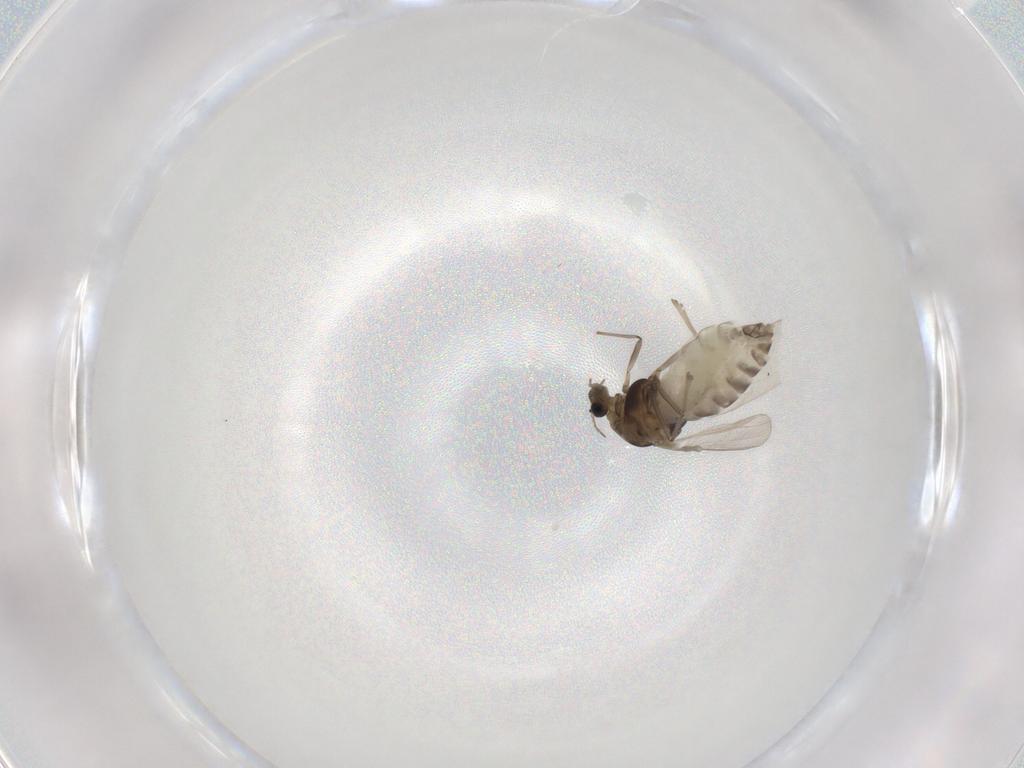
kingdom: Animalia
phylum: Arthropoda
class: Insecta
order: Diptera
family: Chironomidae
